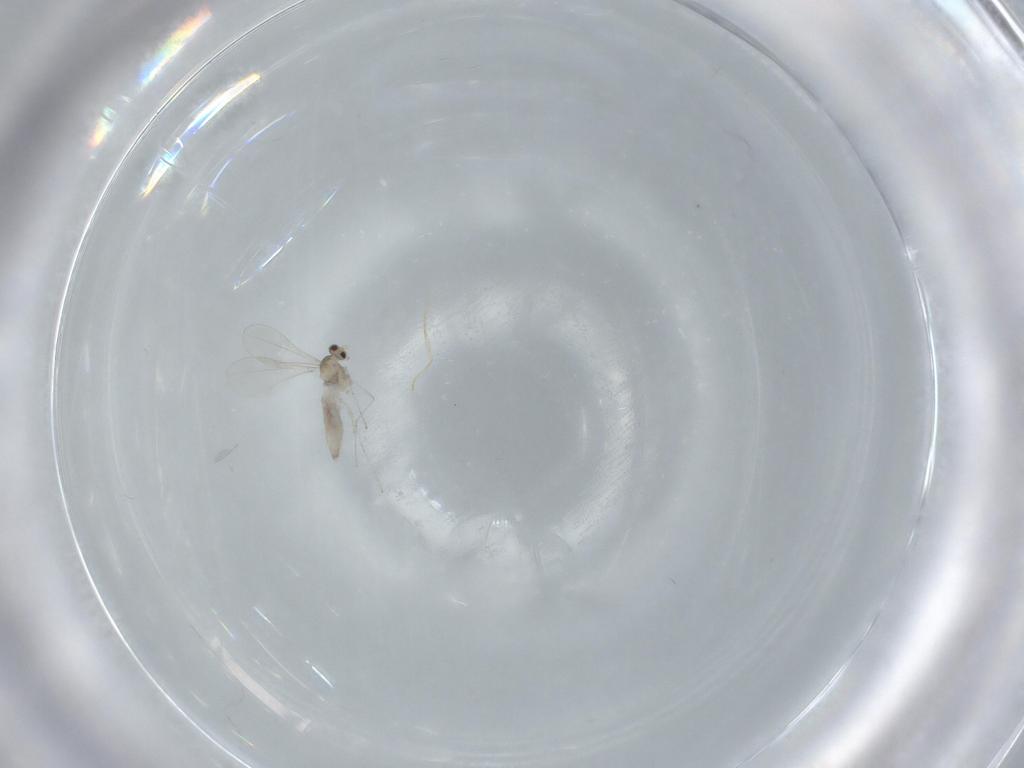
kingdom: Animalia
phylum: Arthropoda
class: Insecta
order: Diptera
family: Cecidomyiidae
